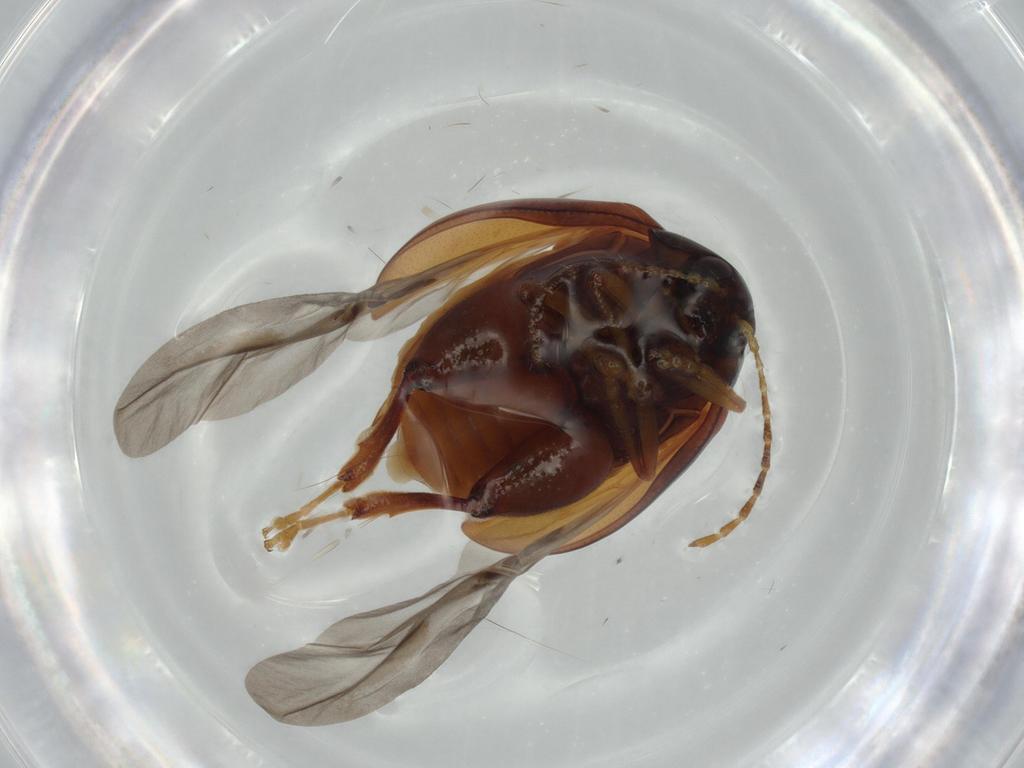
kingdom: Animalia
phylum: Arthropoda
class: Insecta
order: Coleoptera
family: Chrysomelidae
